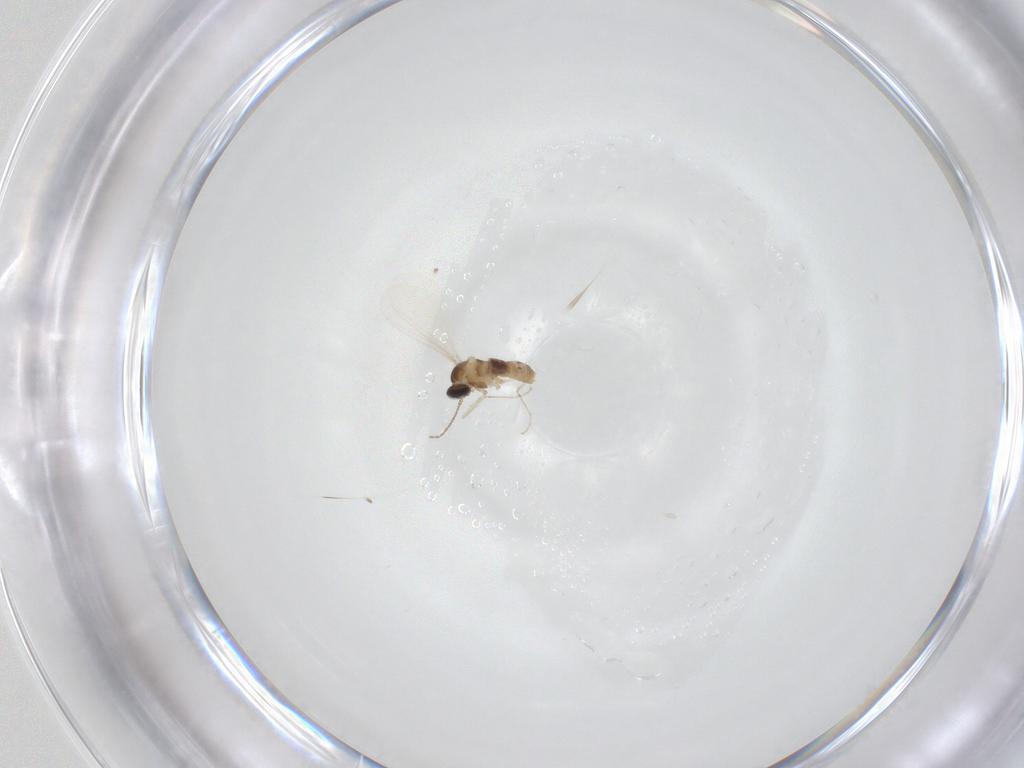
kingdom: Animalia
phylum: Arthropoda
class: Insecta
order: Diptera
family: Cecidomyiidae
